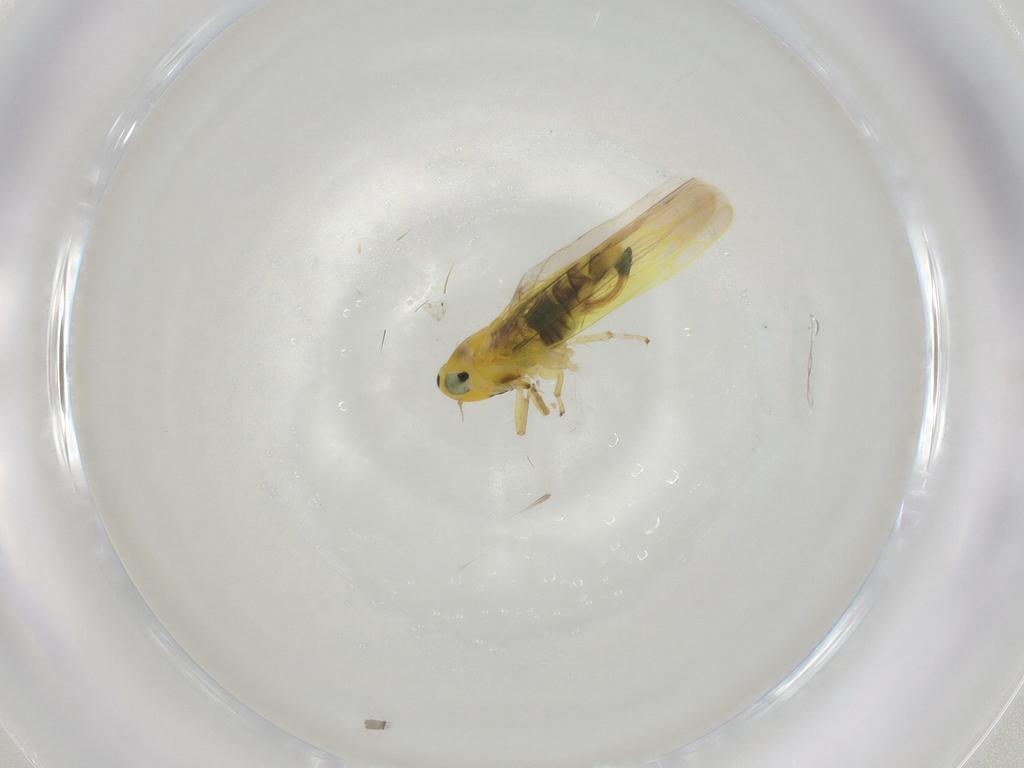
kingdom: Animalia
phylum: Arthropoda
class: Insecta
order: Hemiptera
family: Cicadellidae
